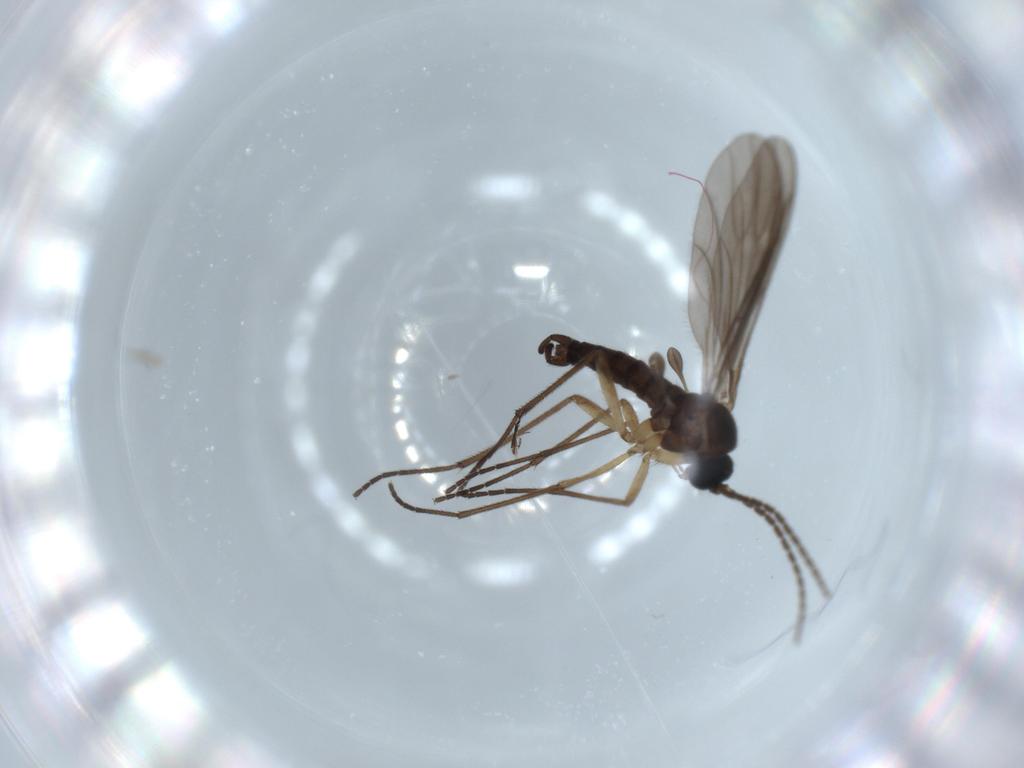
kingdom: Animalia
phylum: Arthropoda
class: Insecta
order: Diptera
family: Sciaridae
